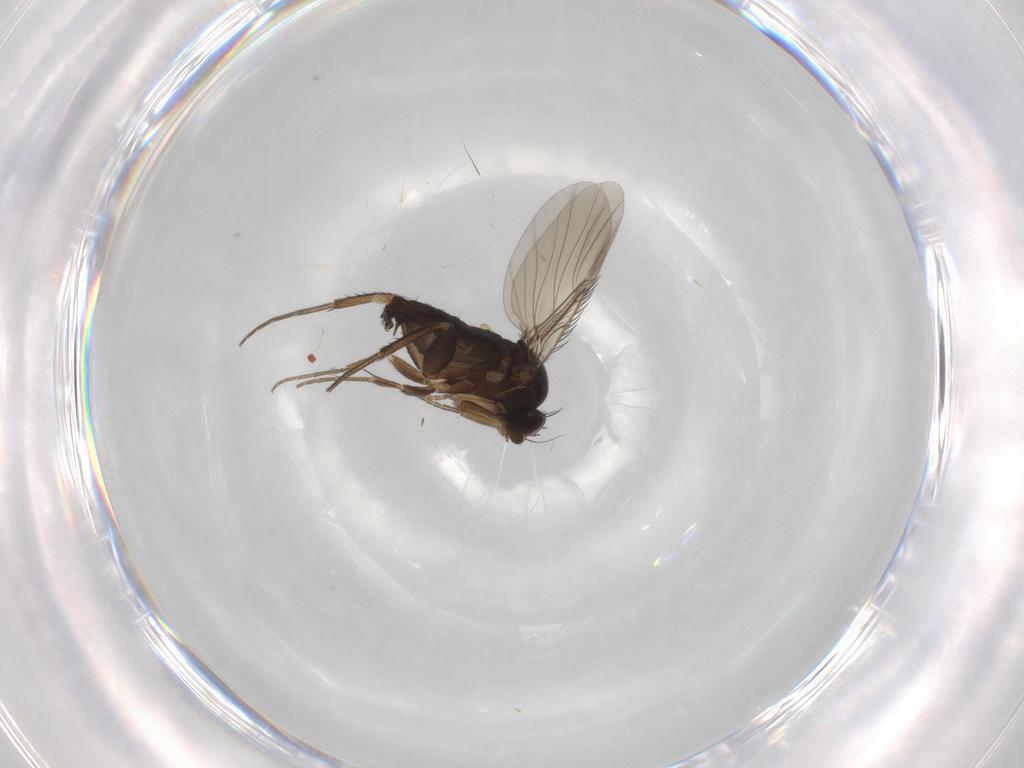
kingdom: Animalia
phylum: Arthropoda
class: Insecta
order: Diptera
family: Phoridae
